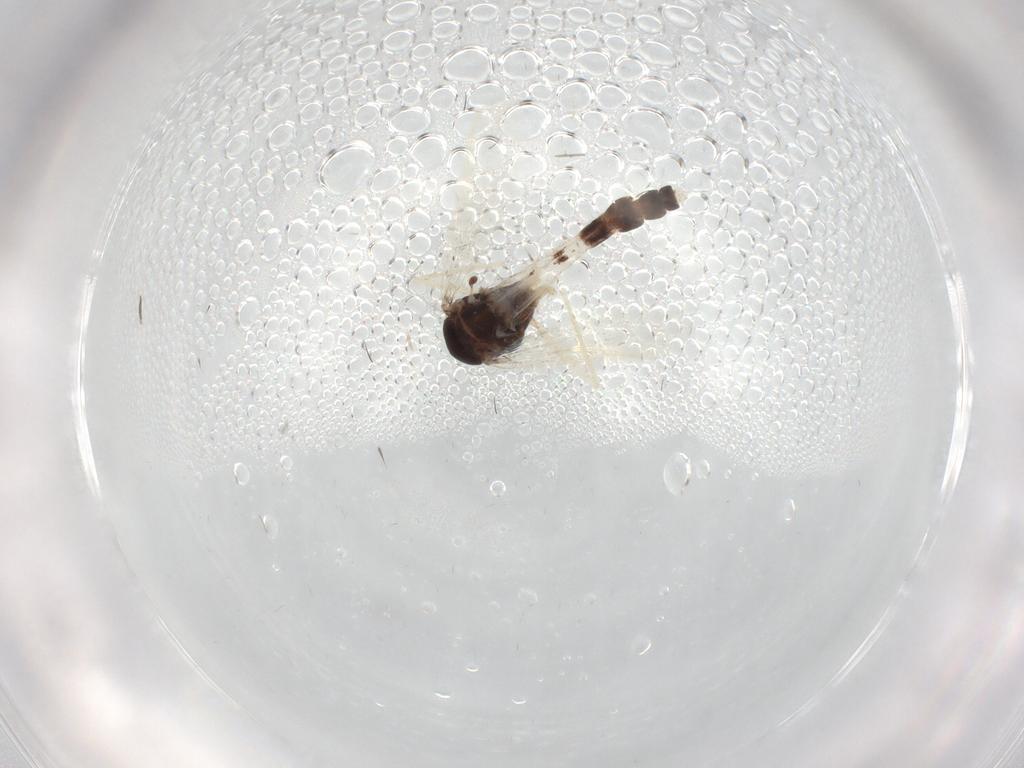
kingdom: Animalia
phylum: Arthropoda
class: Insecta
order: Diptera
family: Chironomidae
